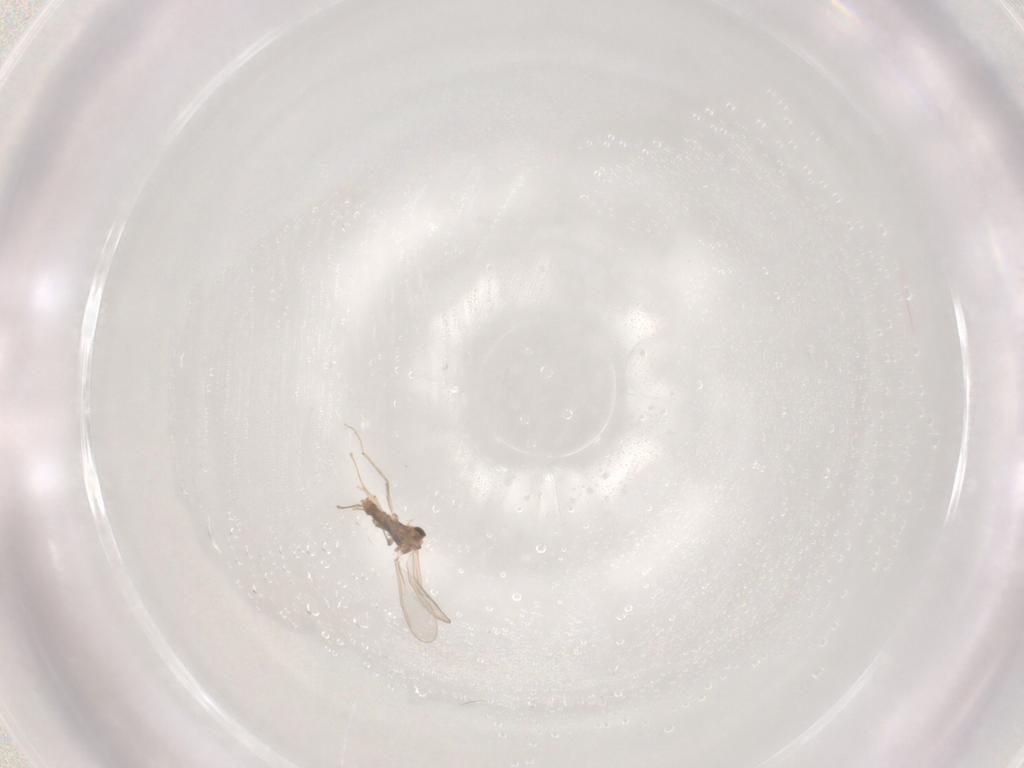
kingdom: Animalia
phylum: Arthropoda
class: Insecta
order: Diptera
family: Chironomidae
